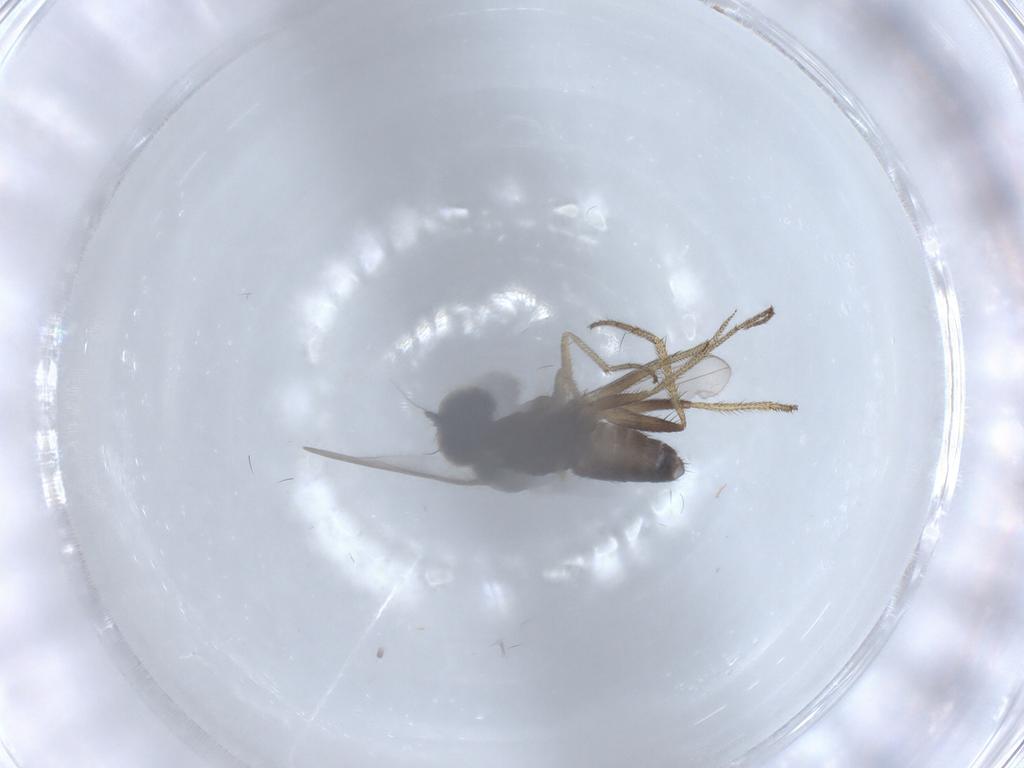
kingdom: Animalia
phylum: Arthropoda
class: Insecta
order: Diptera
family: Dolichopodidae
